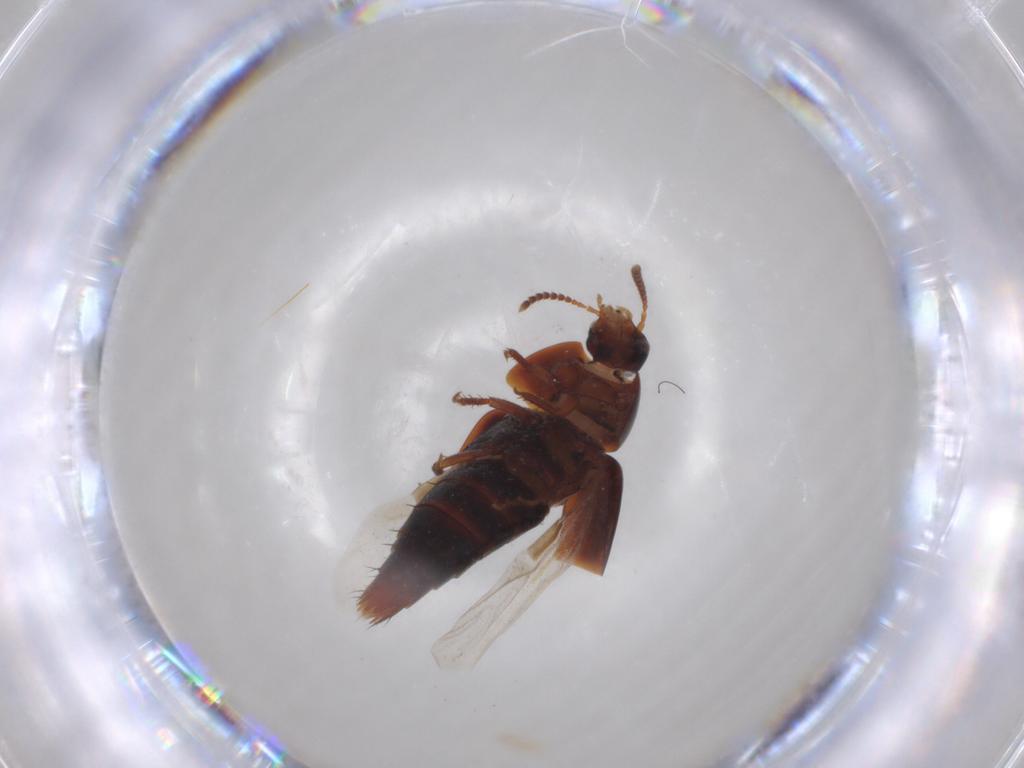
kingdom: Animalia
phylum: Arthropoda
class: Insecta
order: Coleoptera
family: Staphylinidae
